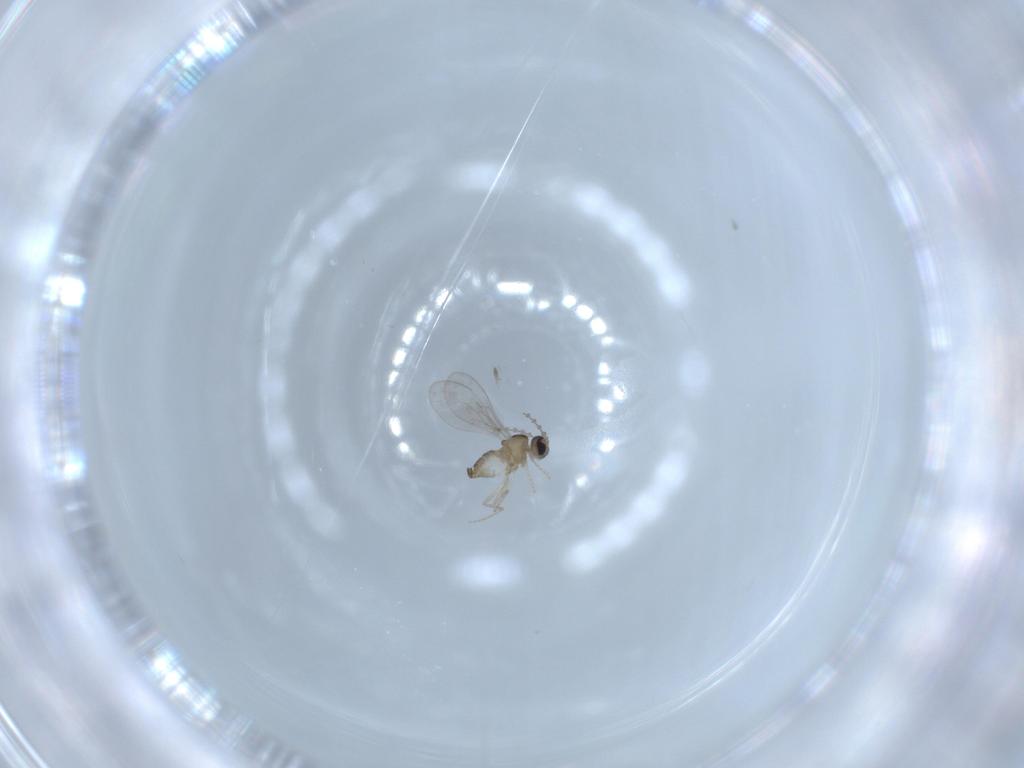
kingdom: Animalia
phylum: Arthropoda
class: Insecta
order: Diptera
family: Cecidomyiidae
